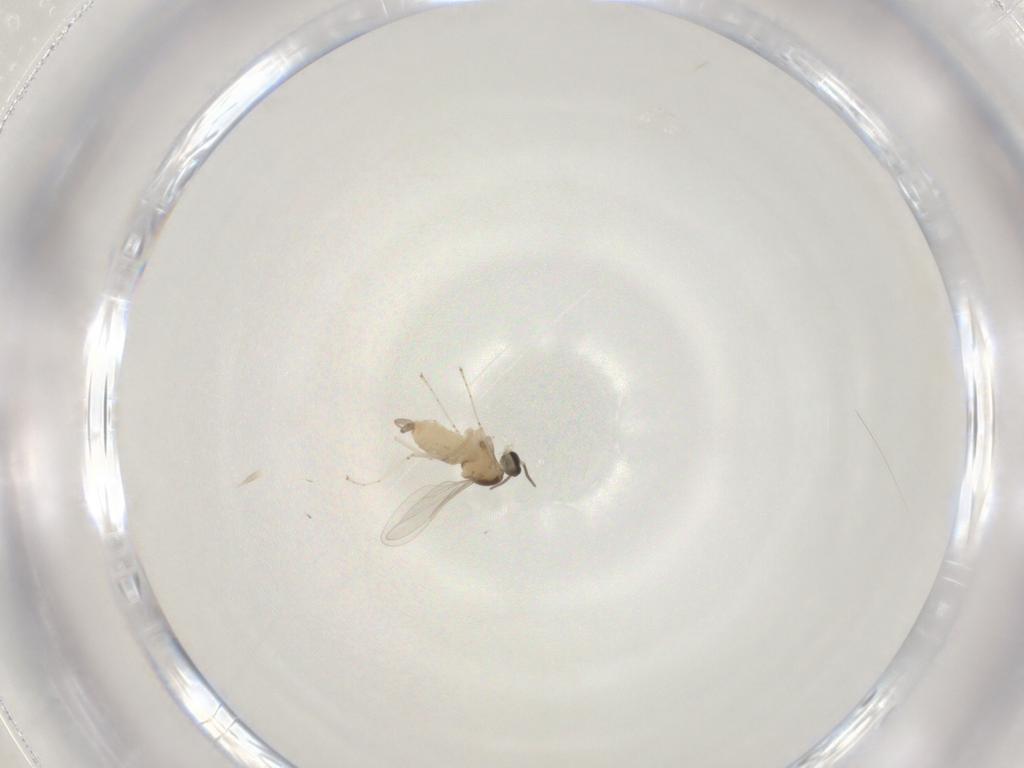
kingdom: Animalia
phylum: Arthropoda
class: Insecta
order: Diptera
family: Cecidomyiidae
